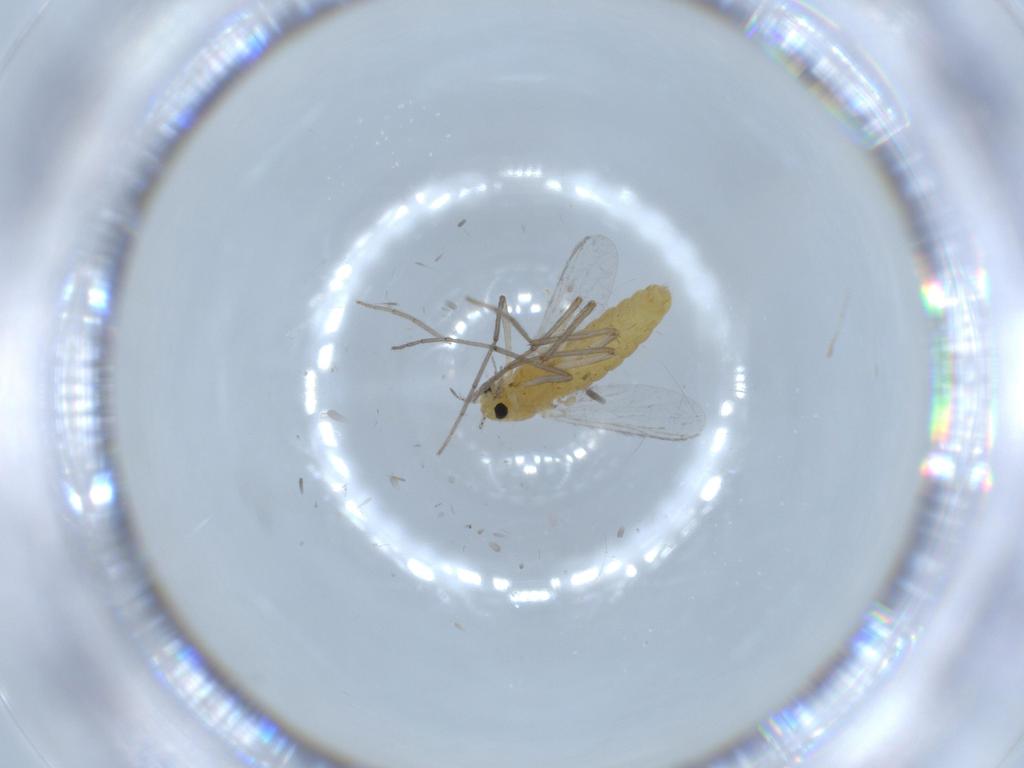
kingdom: Animalia
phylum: Arthropoda
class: Insecta
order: Diptera
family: Chironomidae
